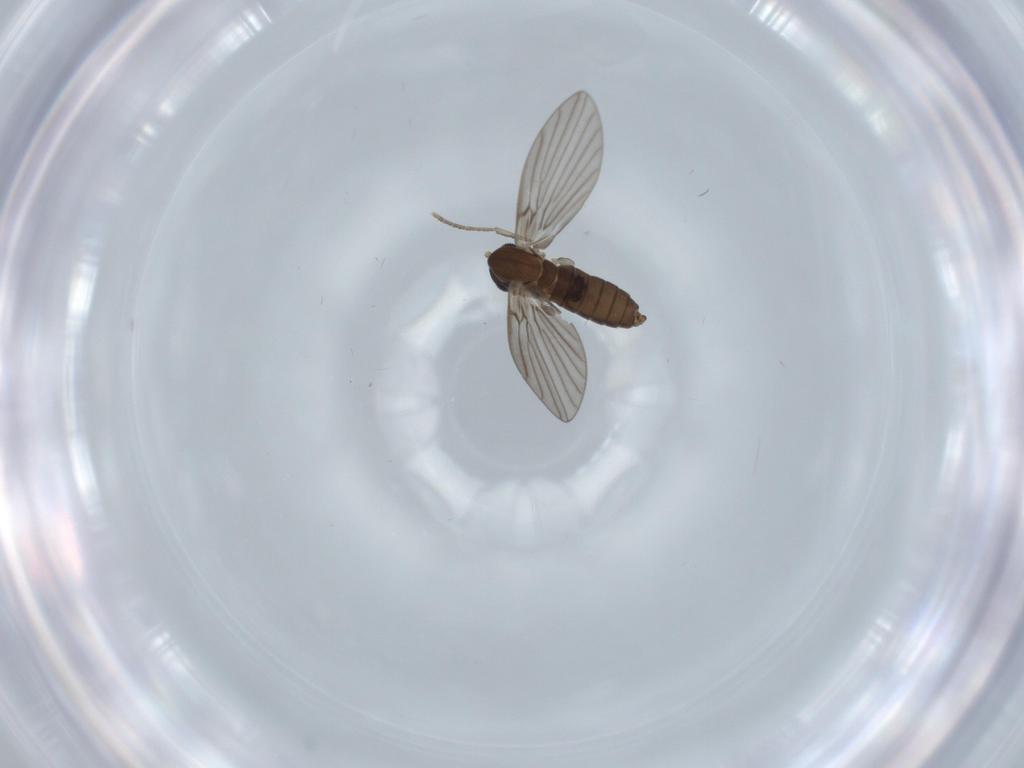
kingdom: Animalia
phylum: Arthropoda
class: Insecta
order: Diptera
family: Psychodidae
